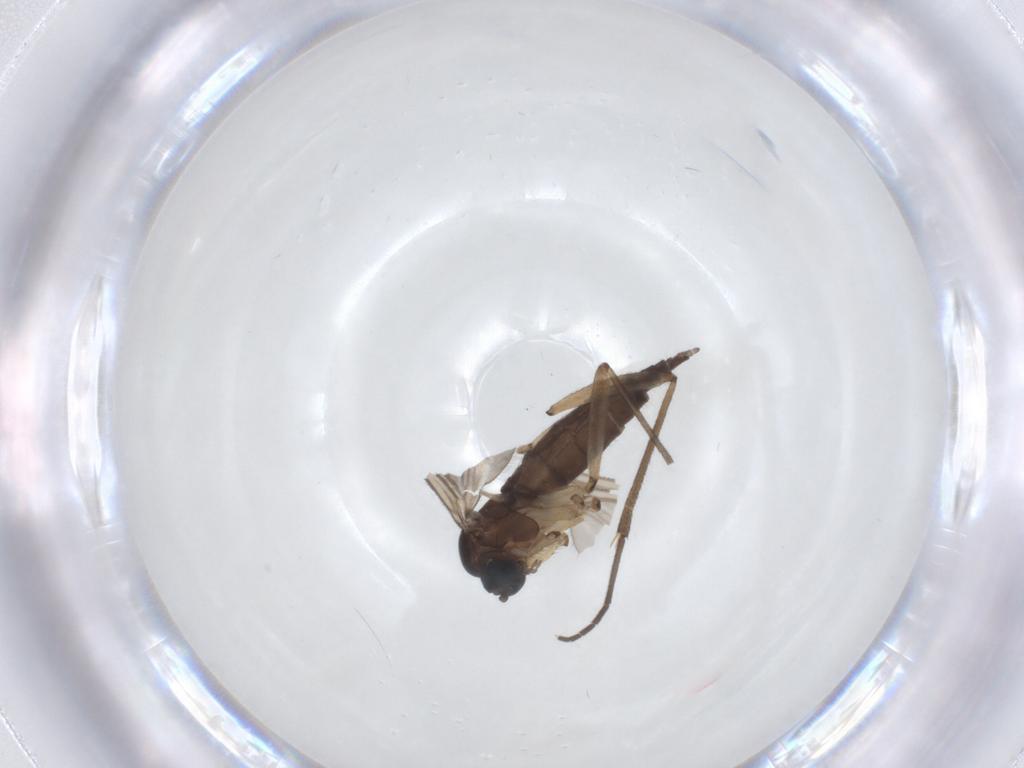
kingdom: Animalia
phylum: Arthropoda
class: Insecta
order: Diptera
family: Sciaridae
